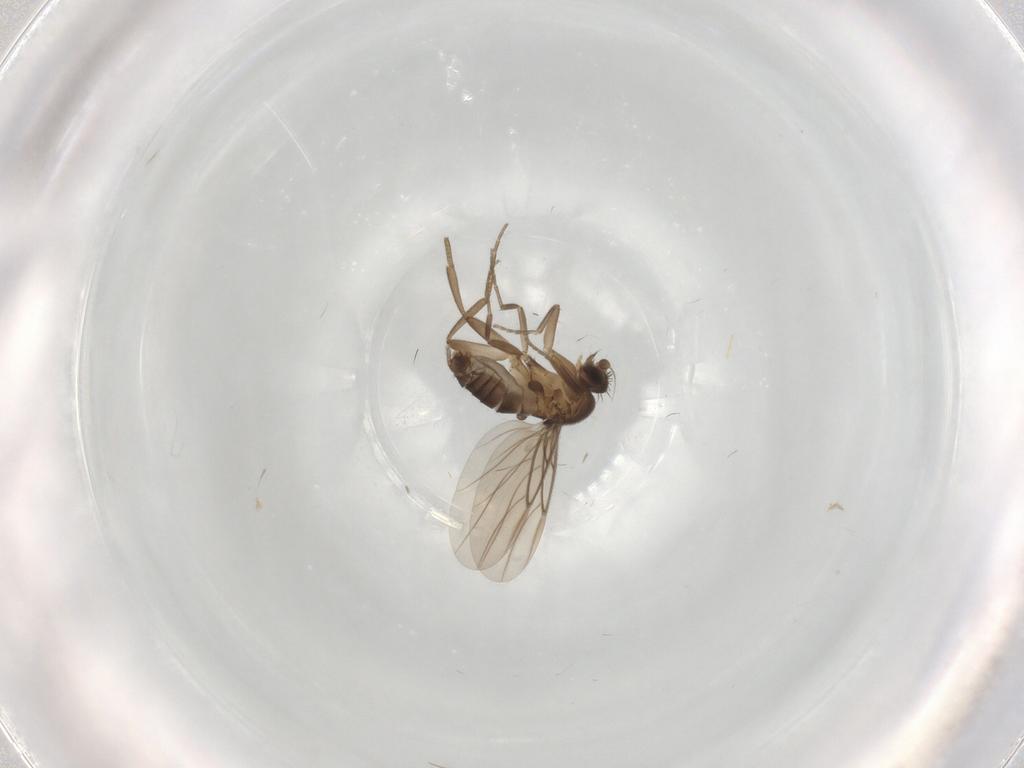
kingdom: Animalia
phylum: Arthropoda
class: Insecta
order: Diptera
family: Phoridae
